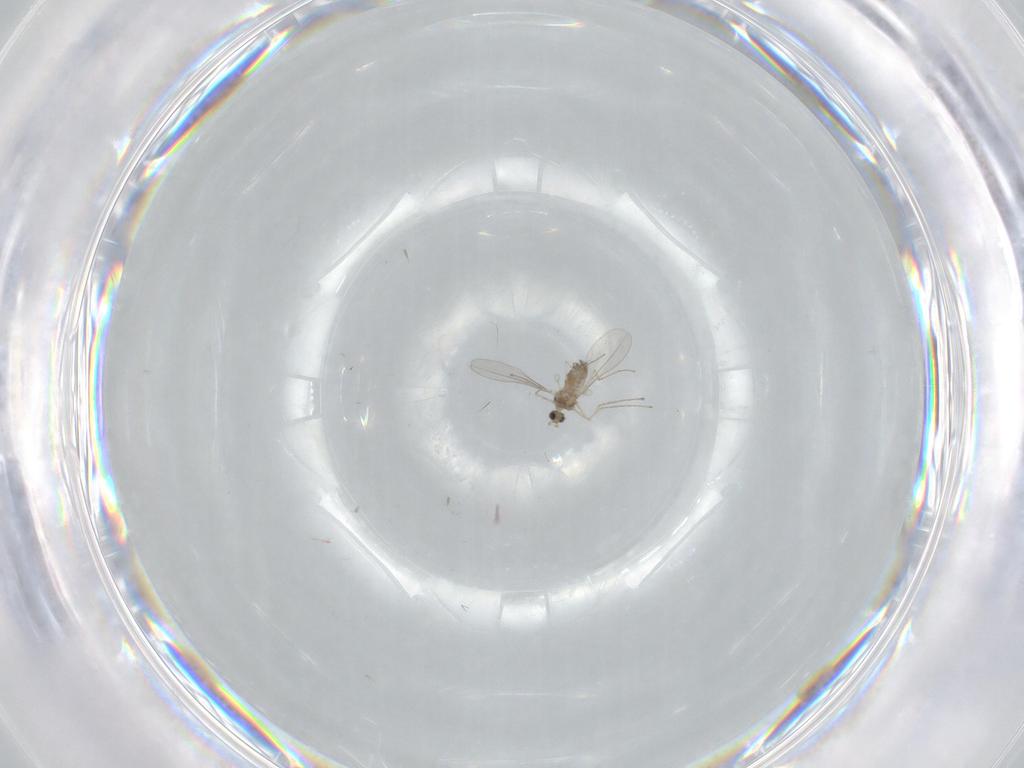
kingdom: Animalia
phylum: Arthropoda
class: Insecta
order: Diptera
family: Cecidomyiidae
